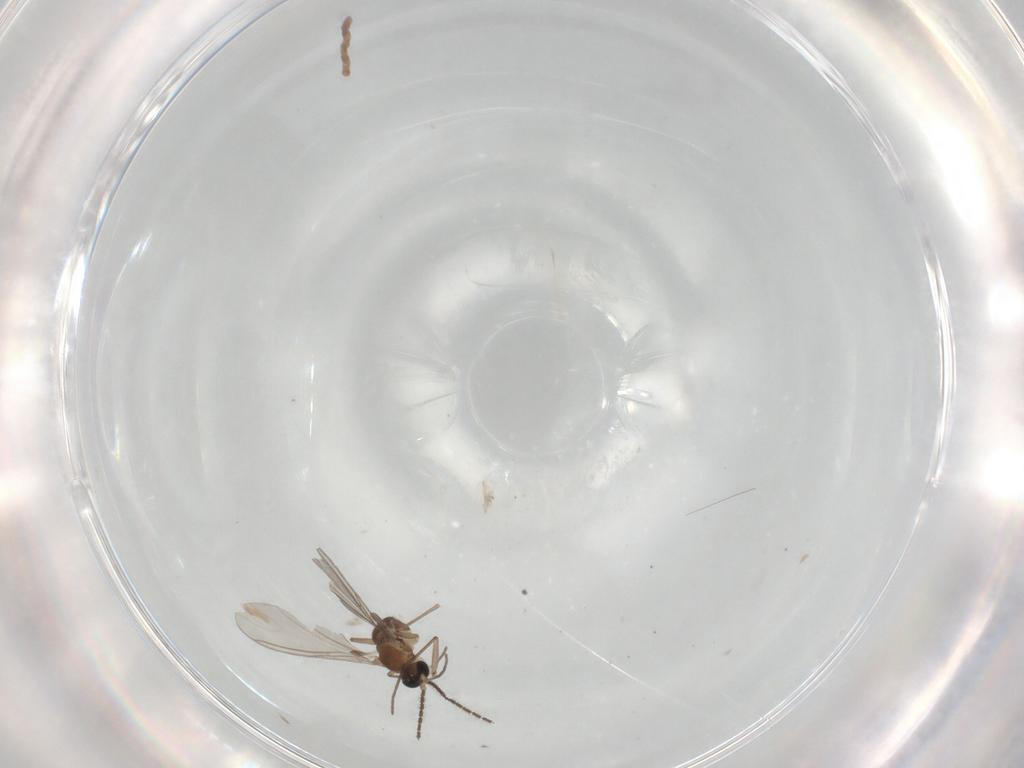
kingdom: Animalia
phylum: Arthropoda
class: Insecta
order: Diptera
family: Sciaridae
